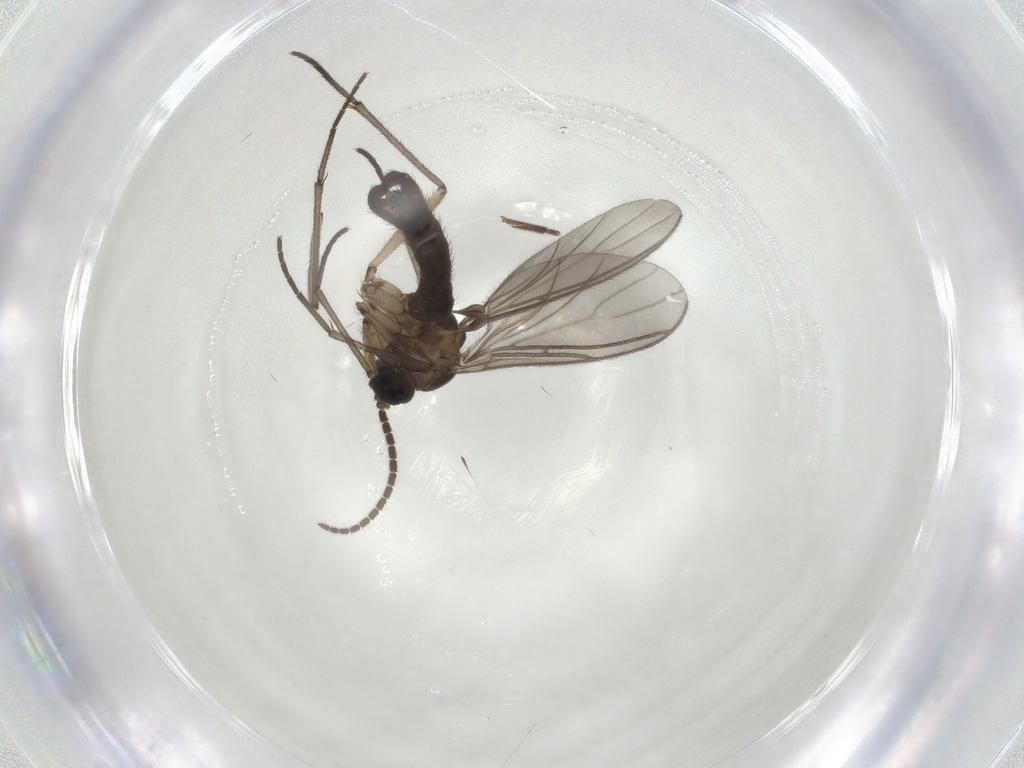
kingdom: Animalia
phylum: Arthropoda
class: Insecta
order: Diptera
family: Sciaridae
